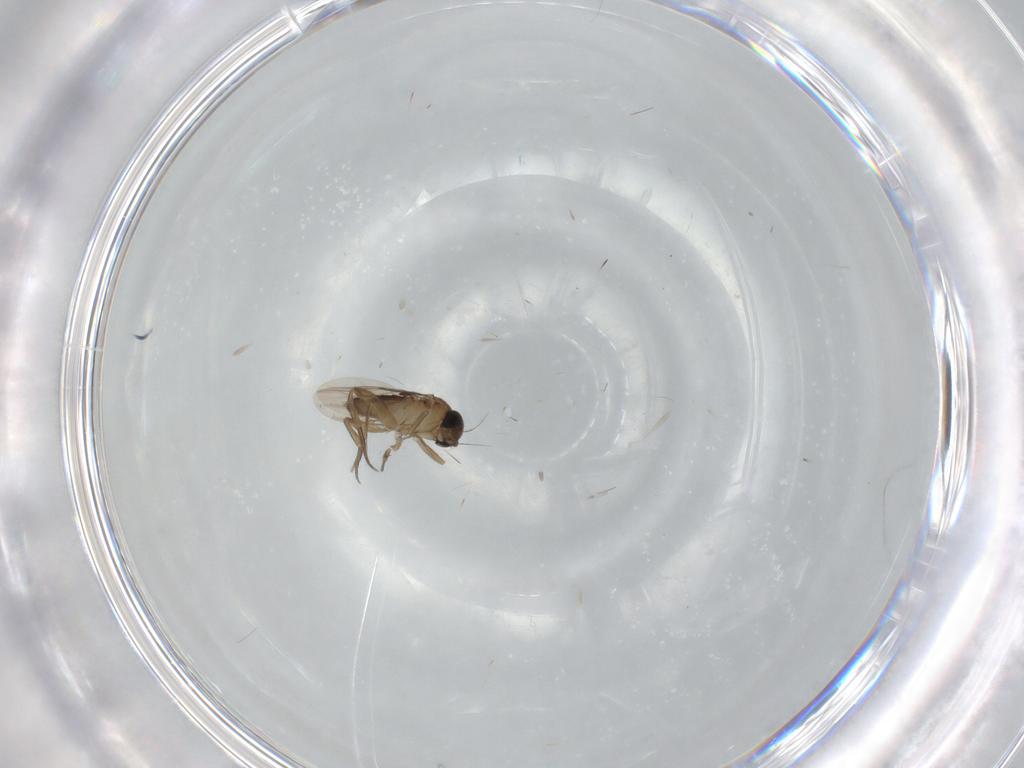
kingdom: Animalia
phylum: Arthropoda
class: Insecta
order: Diptera
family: Phoridae
